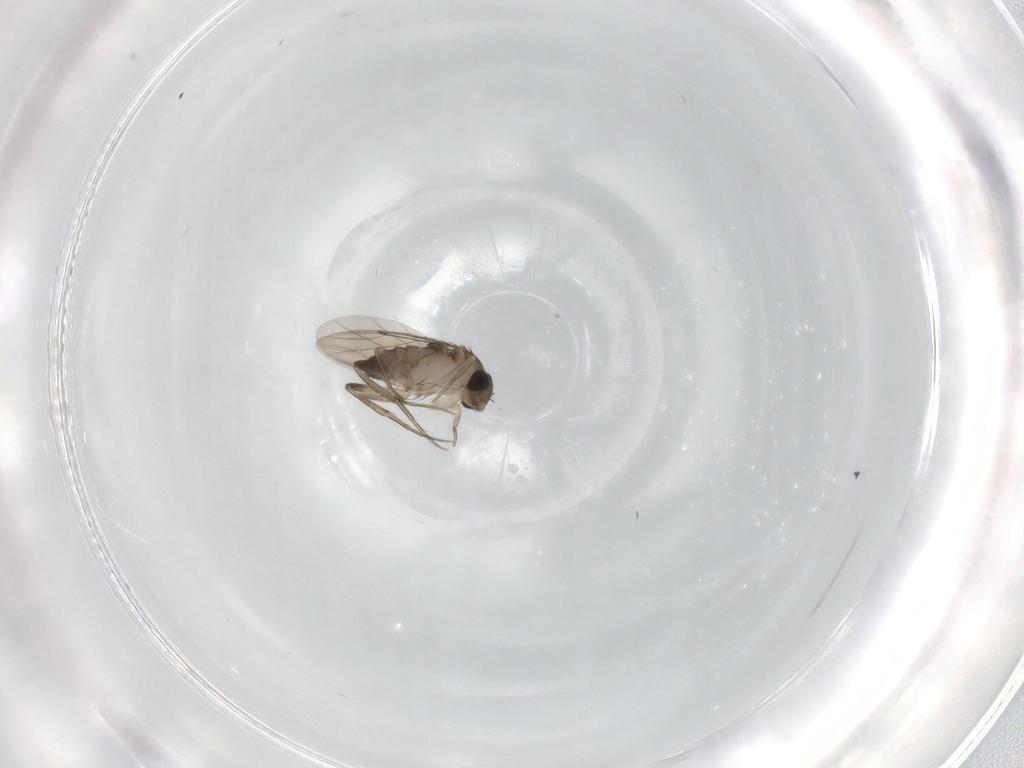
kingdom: Animalia
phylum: Arthropoda
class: Insecta
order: Diptera
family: Phoridae
